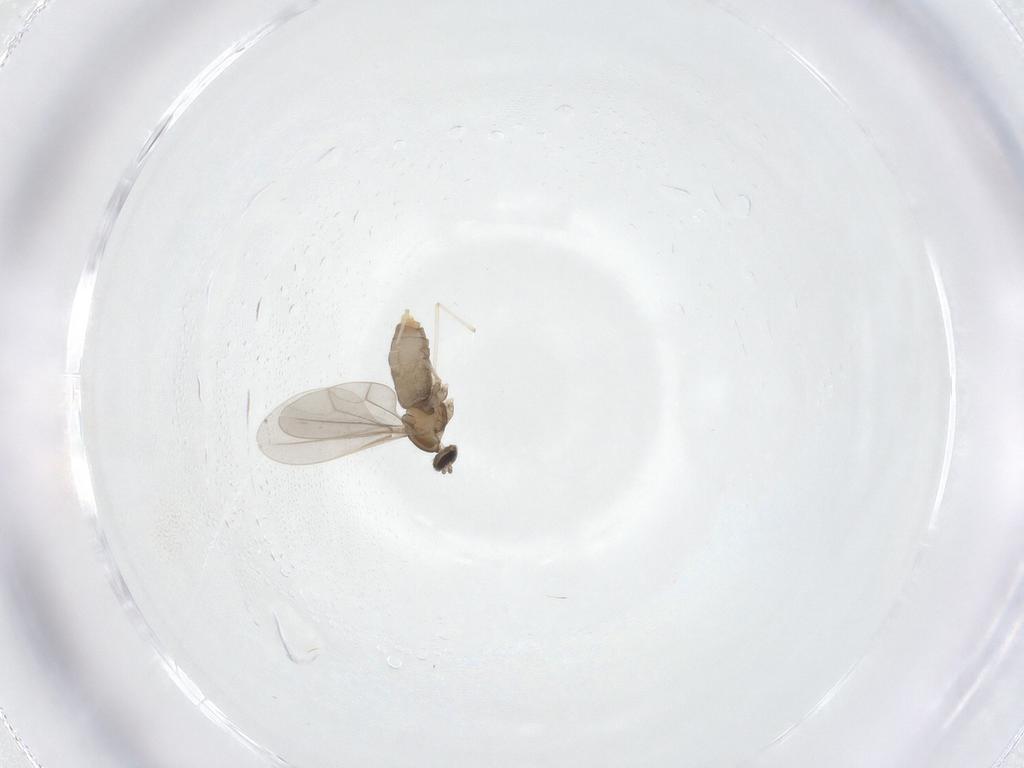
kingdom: Animalia
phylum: Arthropoda
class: Insecta
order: Diptera
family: Cecidomyiidae
